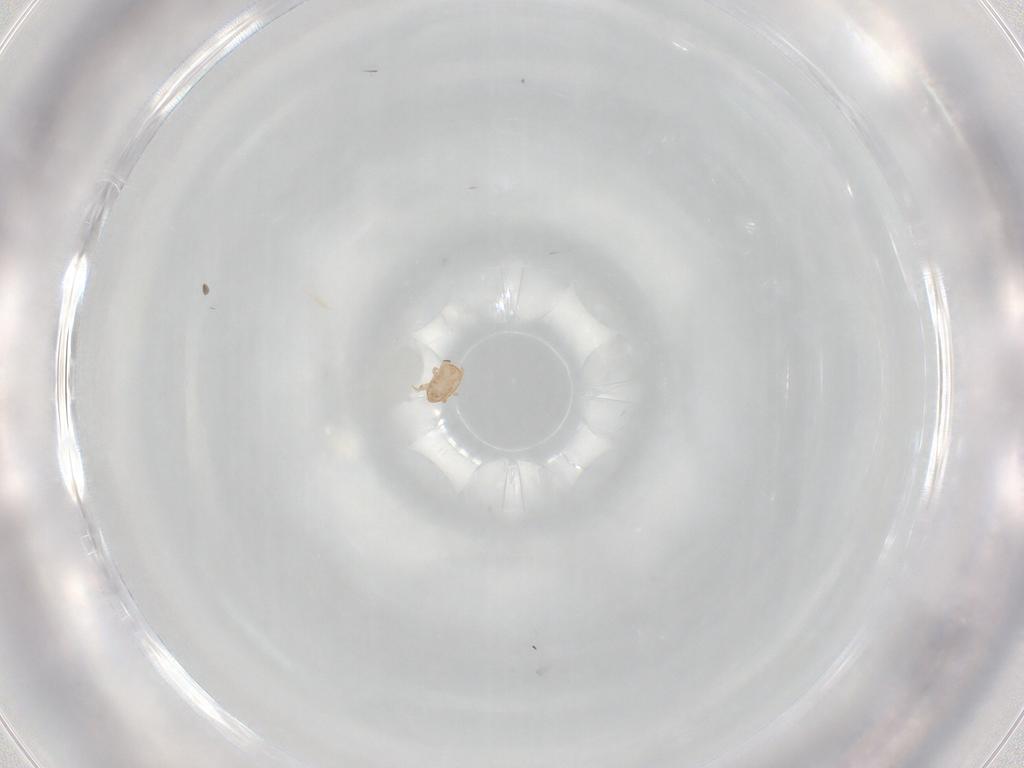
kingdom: Animalia
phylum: Arthropoda
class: Arachnida
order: Mesostigmata
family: Ascidae
